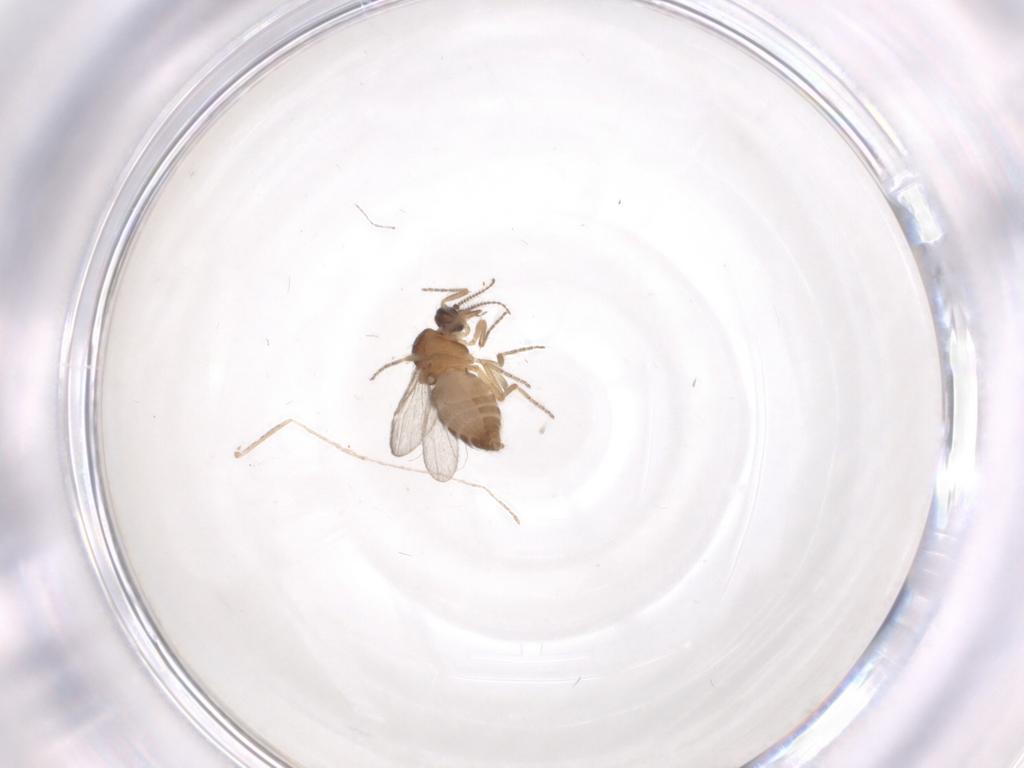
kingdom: Animalia
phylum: Arthropoda
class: Insecta
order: Diptera
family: Ceratopogonidae
